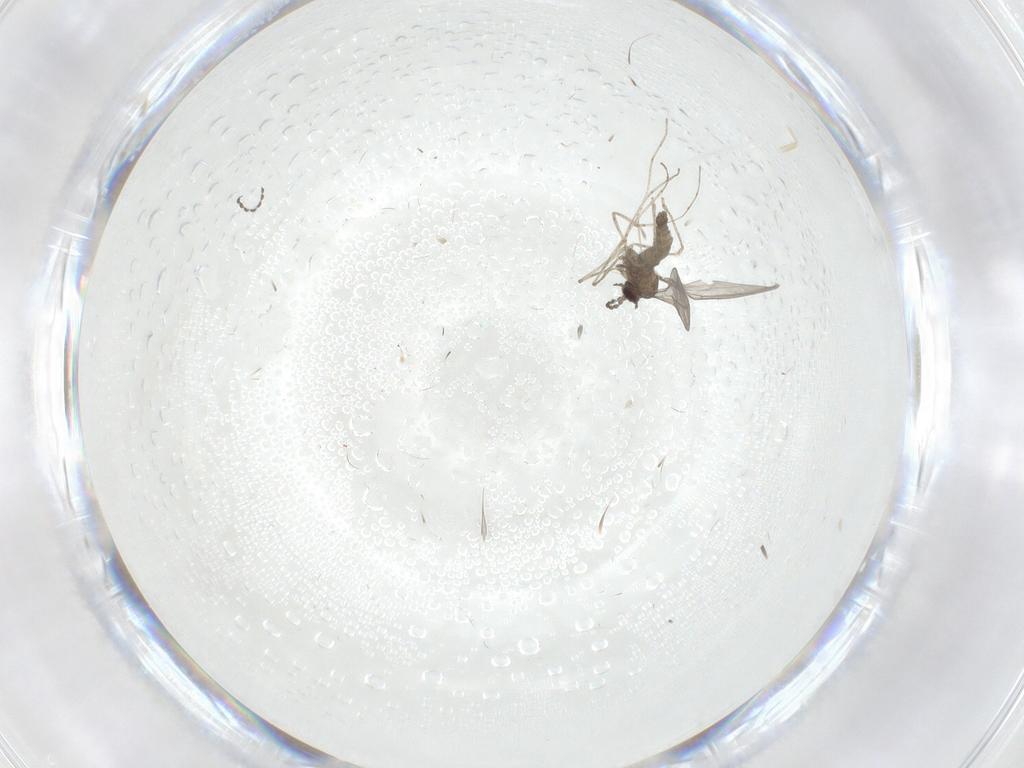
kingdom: Animalia
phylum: Arthropoda
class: Insecta
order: Diptera
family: Cecidomyiidae
